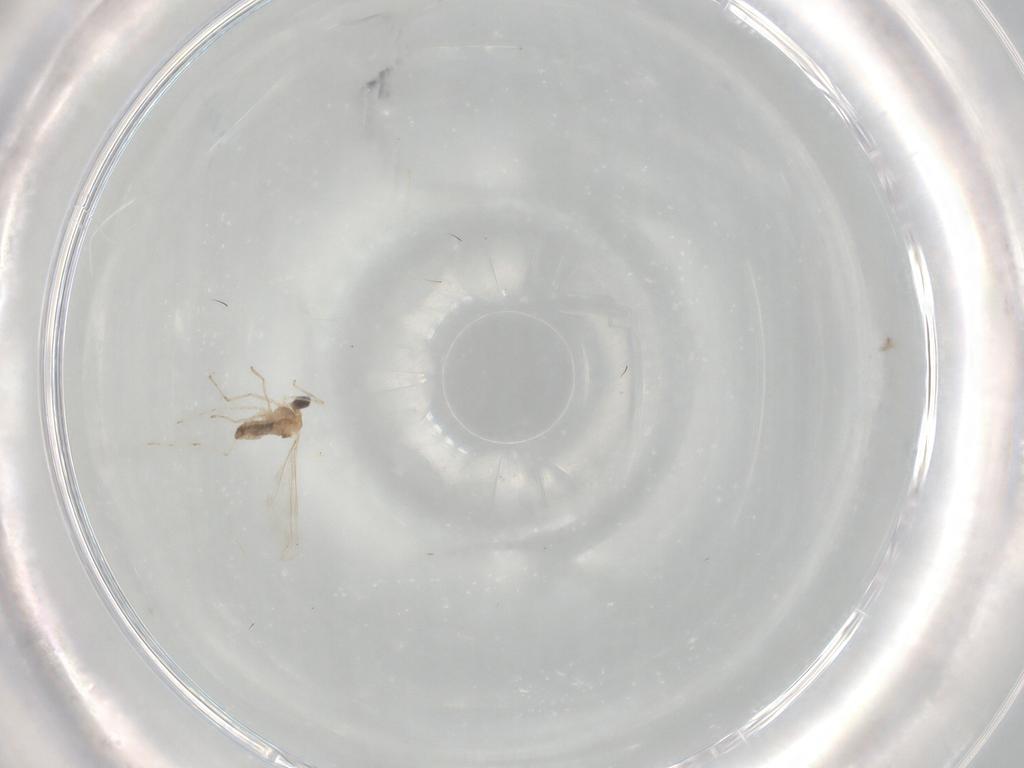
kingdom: Animalia
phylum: Arthropoda
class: Insecta
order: Diptera
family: Cecidomyiidae
